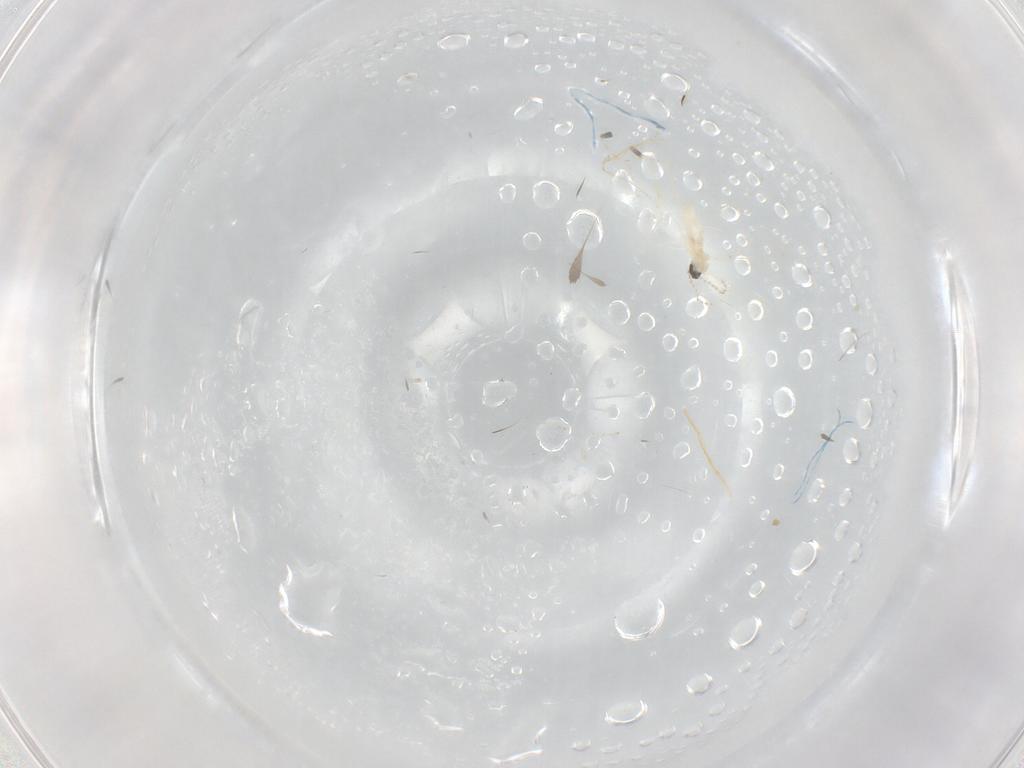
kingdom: Animalia
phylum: Arthropoda
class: Insecta
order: Diptera
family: Cecidomyiidae
